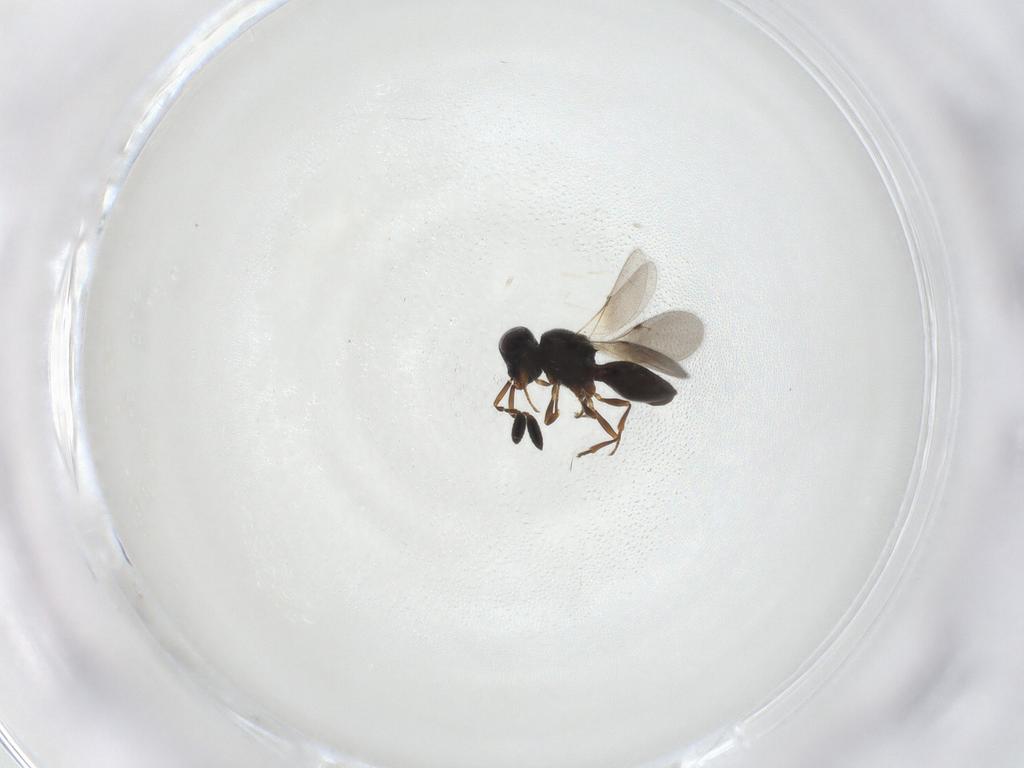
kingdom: Animalia
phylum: Arthropoda
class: Insecta
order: Hymenoptera
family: Scelionidae
